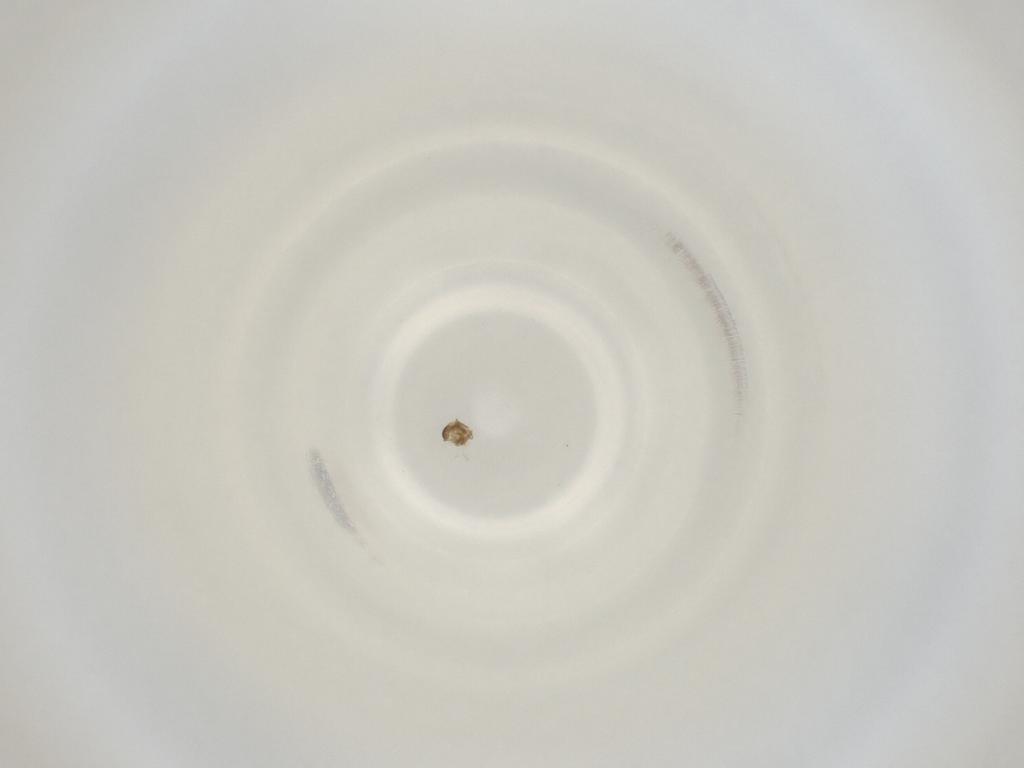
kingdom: Animalia
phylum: Arthropoda
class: Insecta
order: Diptera
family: Cecidomyiidae
